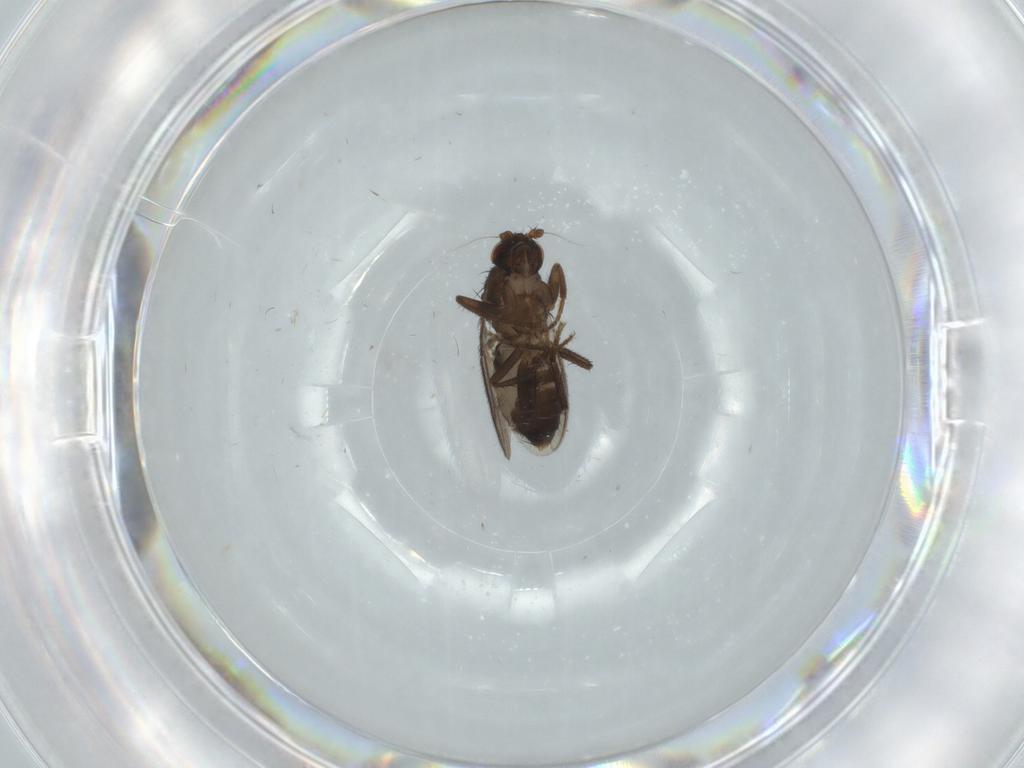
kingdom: Animalia
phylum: Arthropoda
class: Insecta
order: Diptera
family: Sphaeroceridae
